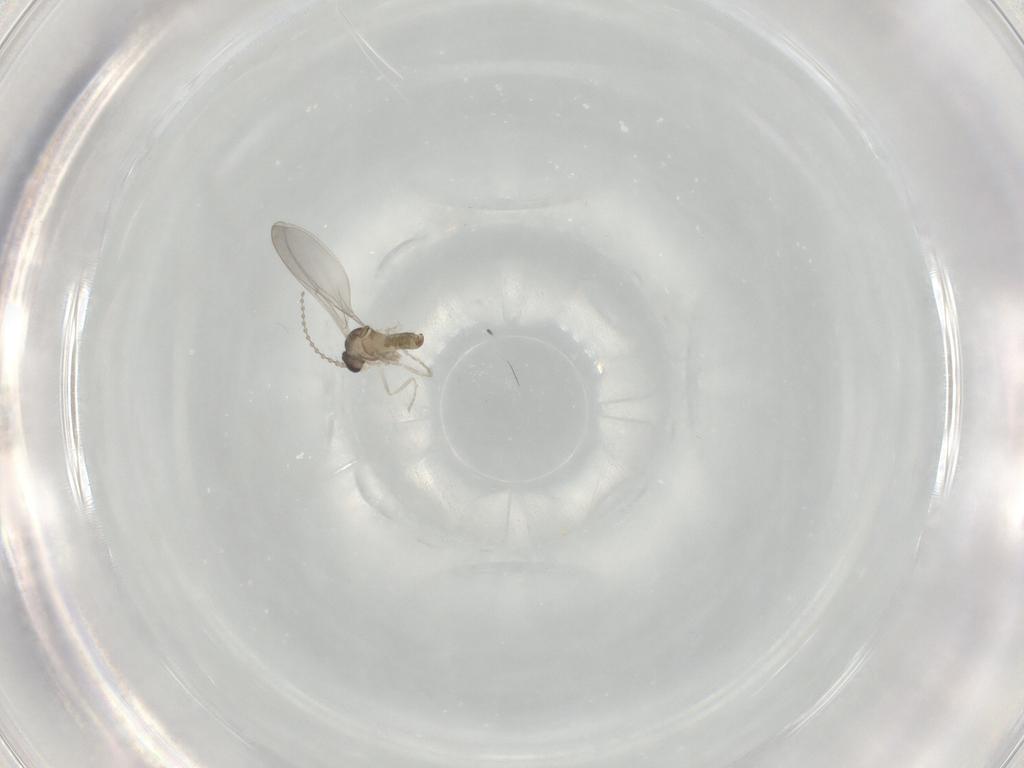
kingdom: Animalia
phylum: Arthropoda
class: Insecta
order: Diptera
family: Cecidomyiidae
